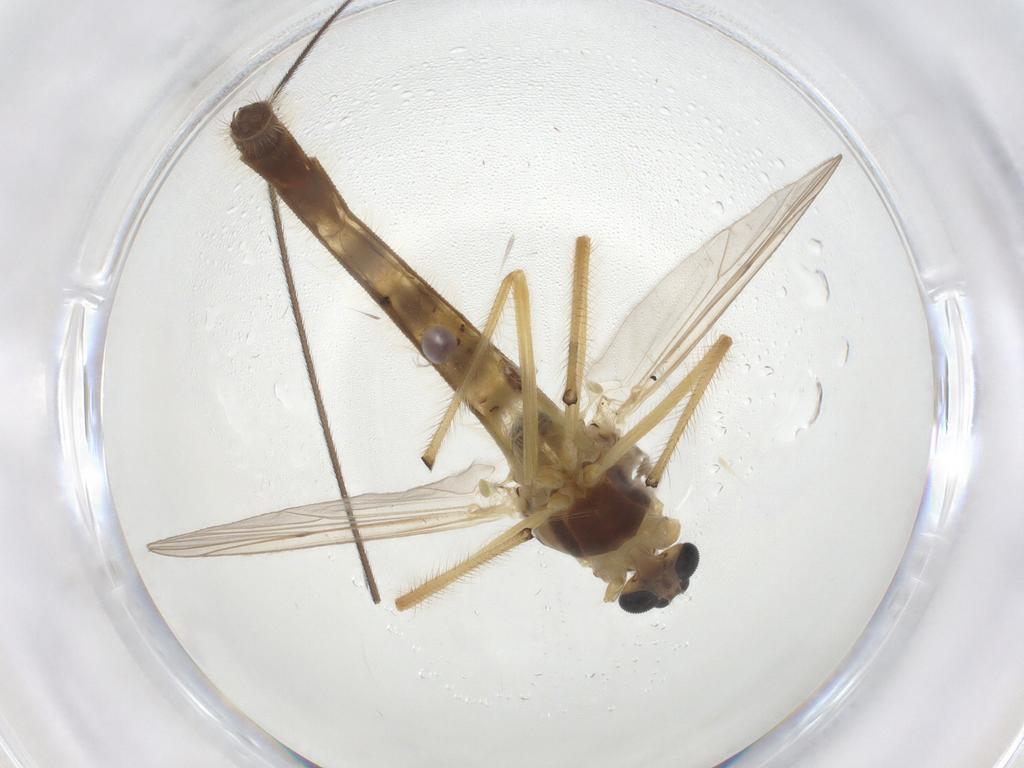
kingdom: Animalia
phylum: Arthropoda
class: Insecta
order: Diptera
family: Chironomidae
